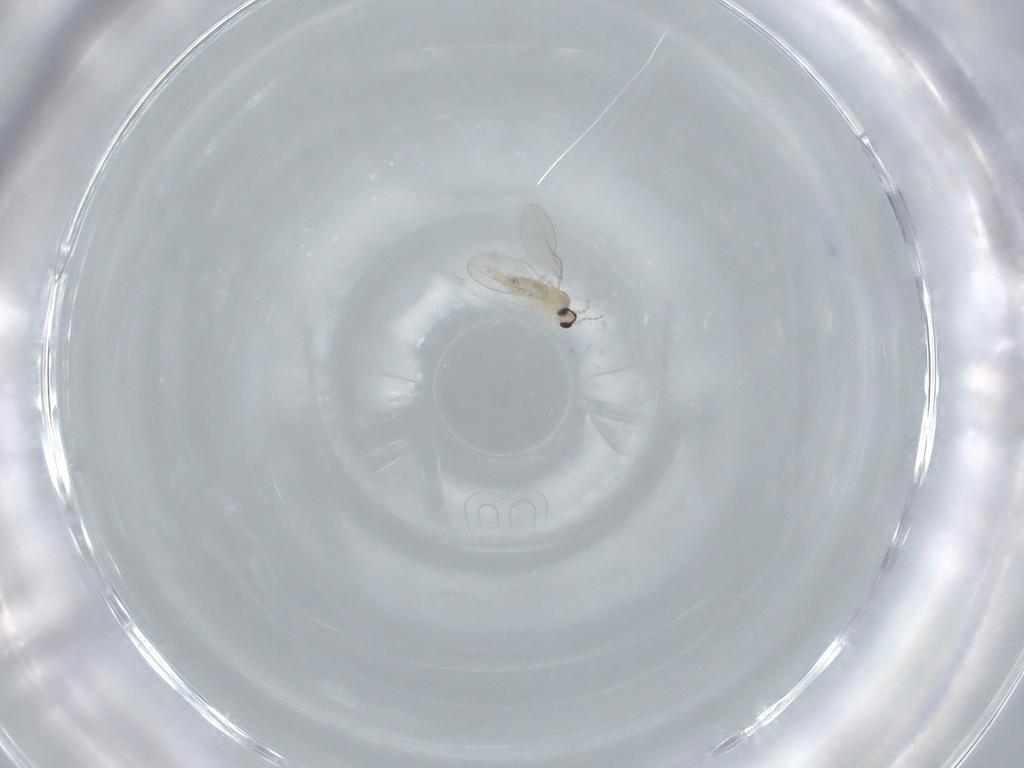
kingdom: Animalia
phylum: Arthropoda
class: Insecta
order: Diptera
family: Cecidomyiidae
